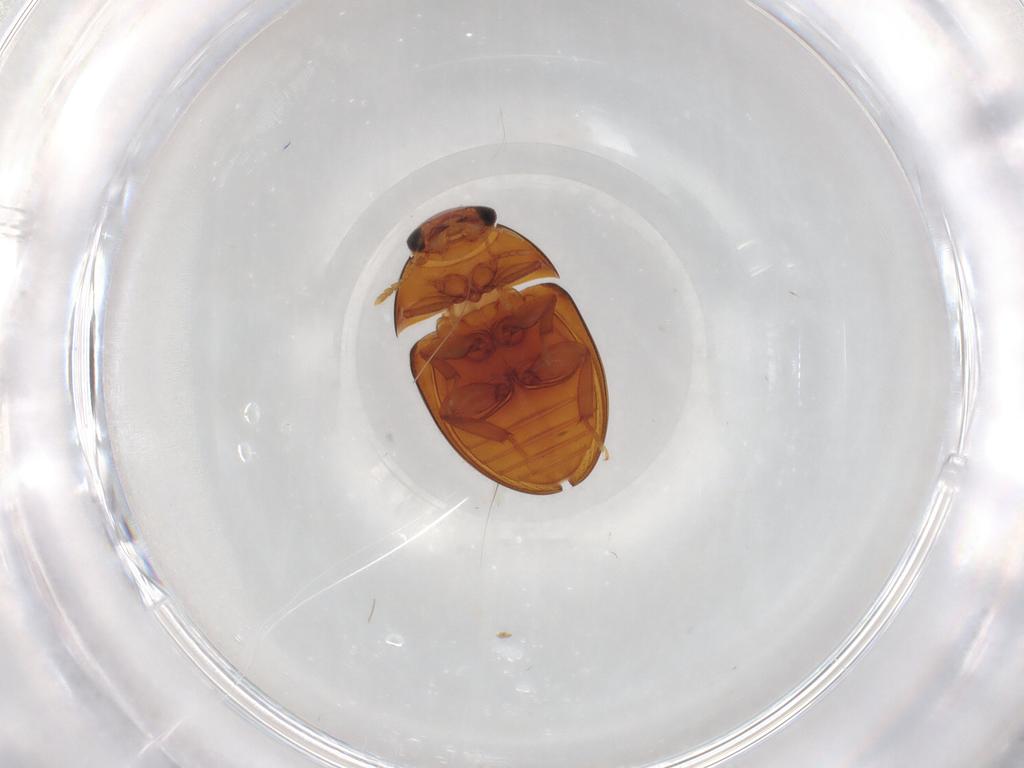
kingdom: Animalia
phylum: Arthropoda
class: Insecta
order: Coleoptera
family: Phalacridae
